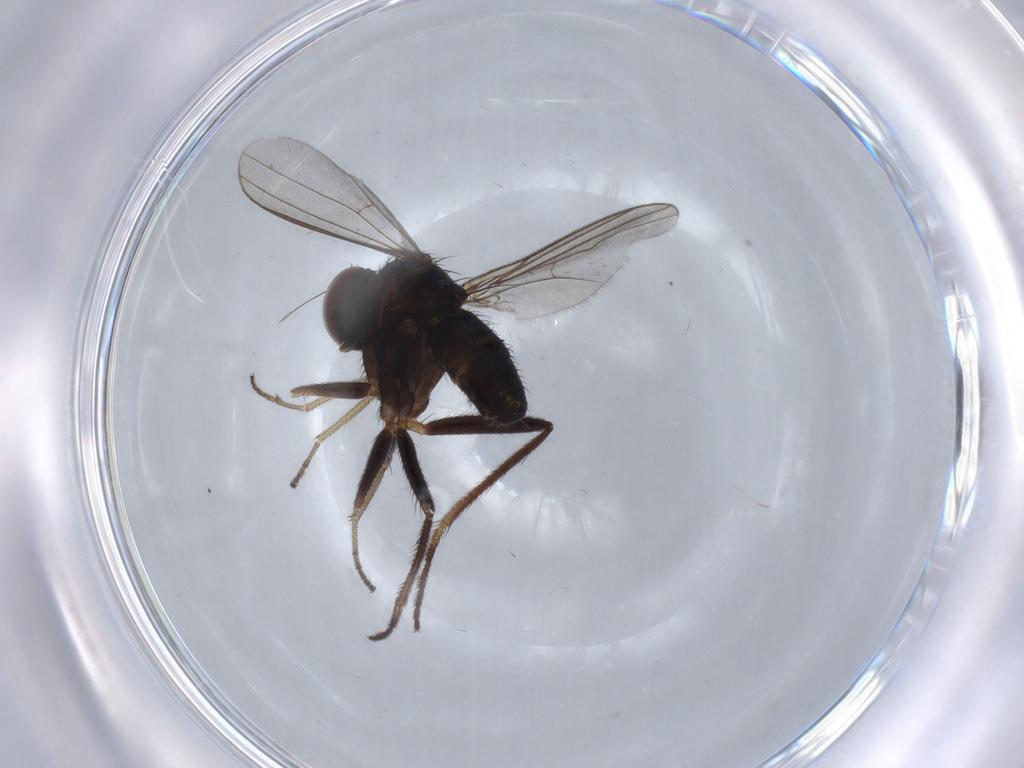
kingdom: Animalia
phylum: Arthropoda
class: Insecta
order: Diptera
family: Dolichopodidae
